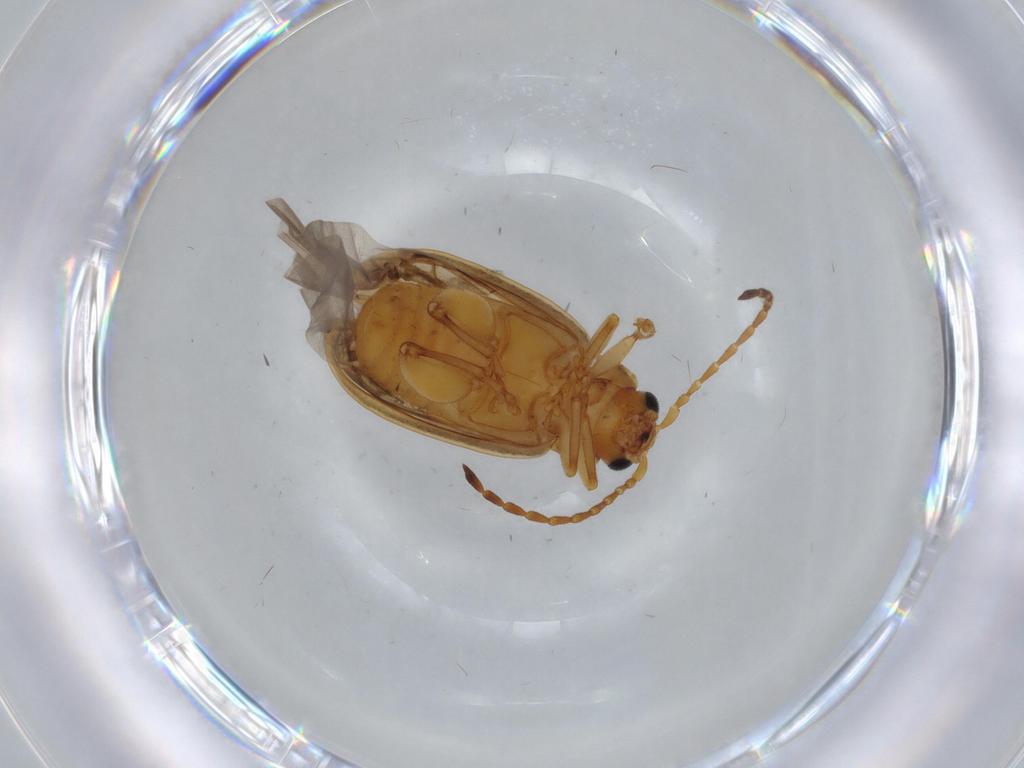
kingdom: Animalia
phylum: Arthropoda
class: Insecta
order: Coleoptera
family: Chrysomelidae
